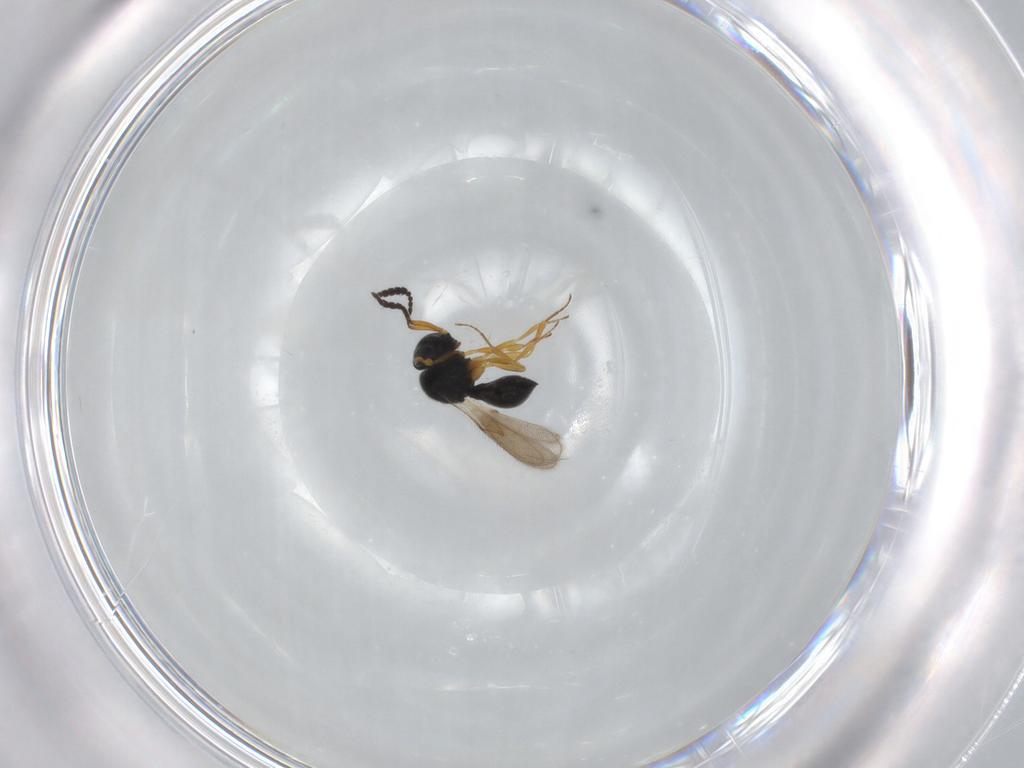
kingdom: Animalia
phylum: Arthropoda
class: Insecta
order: Hymenoptera
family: Scelionidae
